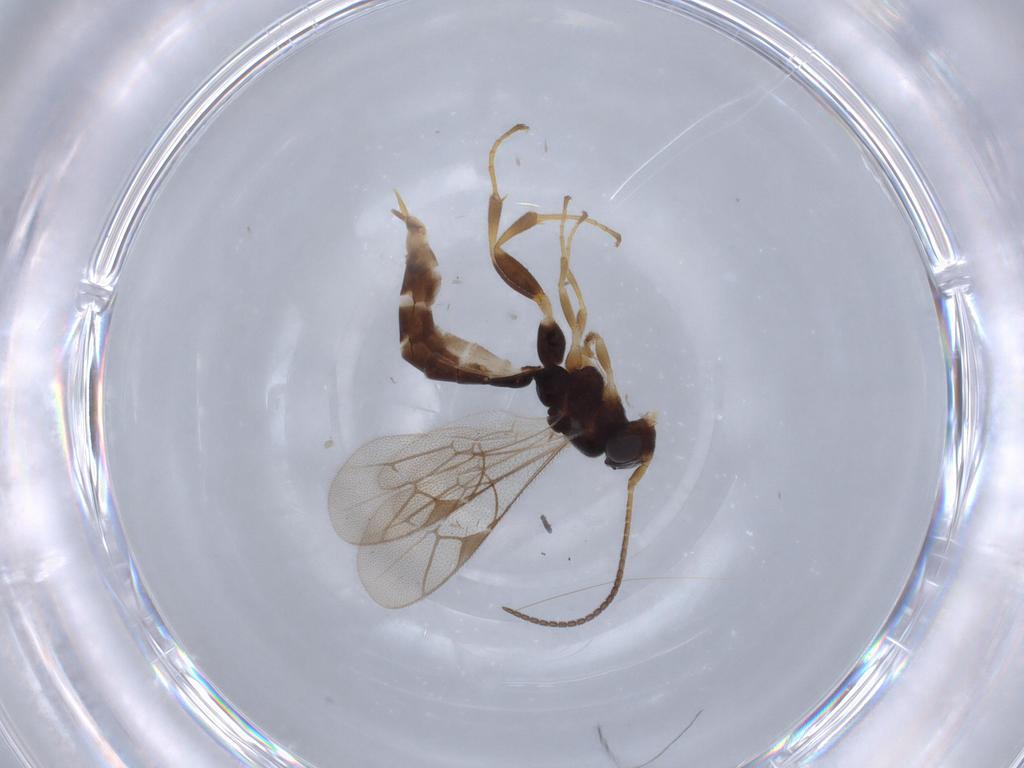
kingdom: Animalia
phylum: Arthropoda
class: Insecta
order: Hymenoptera
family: Ichneumonidae
